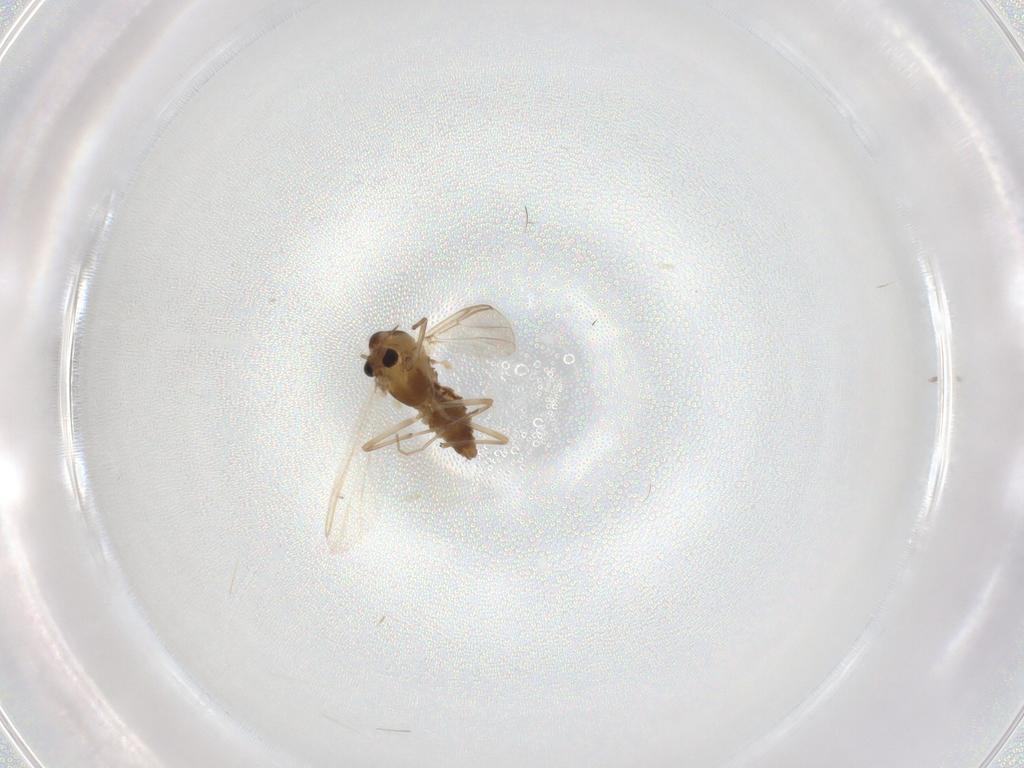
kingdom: Animalia
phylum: Arthropoda
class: Insecta
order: Diptera
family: Chironomidae
